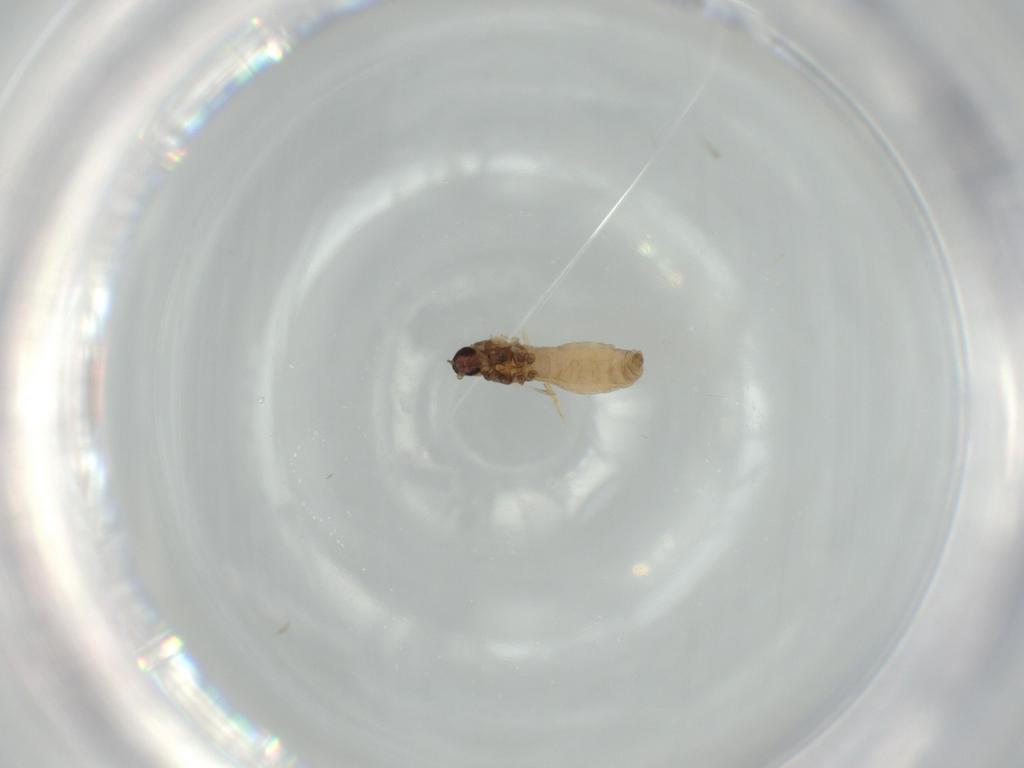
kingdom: Animalia
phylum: Arthropoda
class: Insecta
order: Diptera
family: Cecidomyiidae
